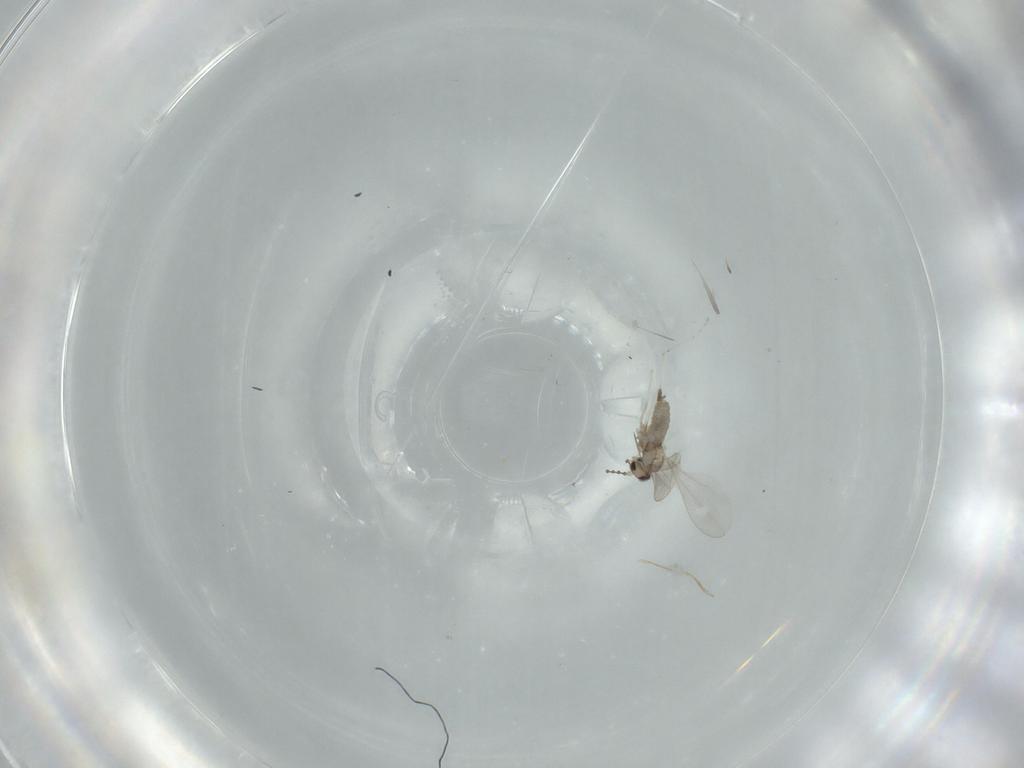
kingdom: Animalia
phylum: Arthropoda
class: Insecta
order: Diptera
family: Cecidomyiidae
